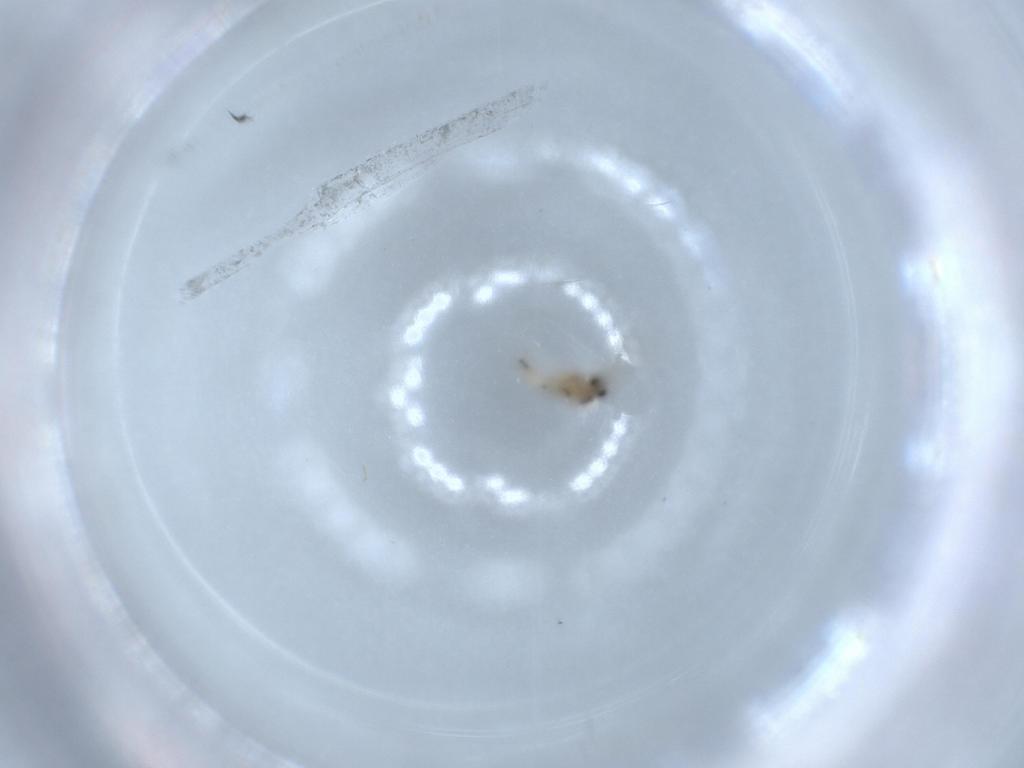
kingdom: Animalia
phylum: Arthropoda
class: Insecta
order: Diptera
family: Cecidomyiidae
